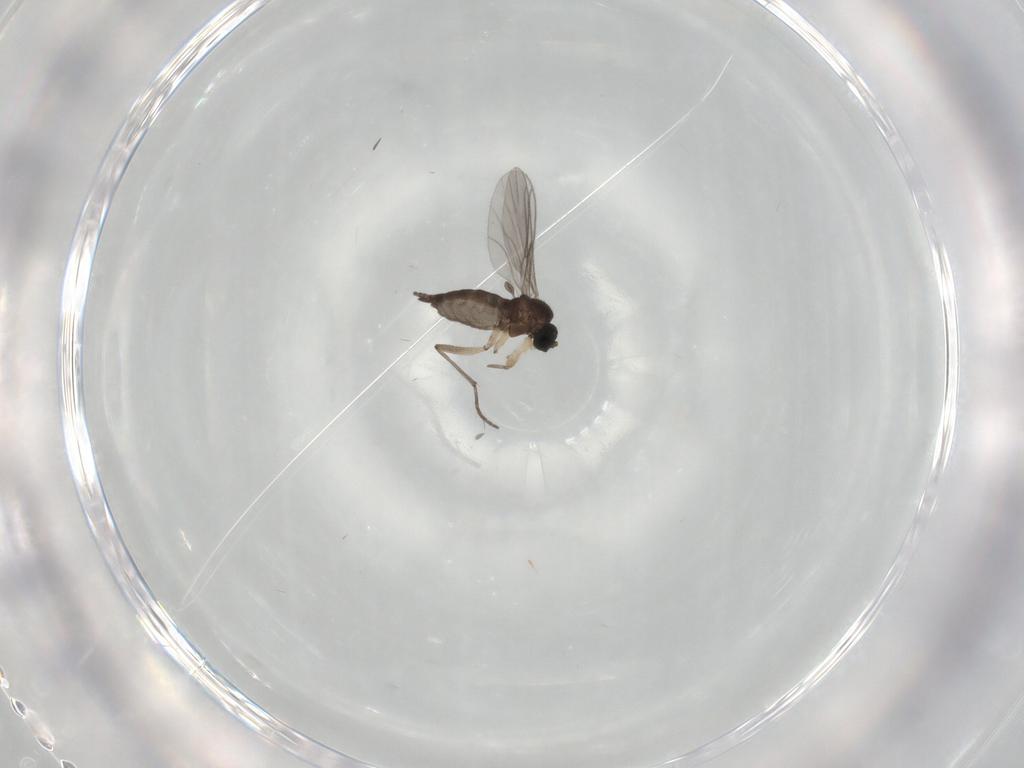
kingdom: Animalia
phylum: Arthropoda
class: Insecta
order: Diptera
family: Sciaridae
